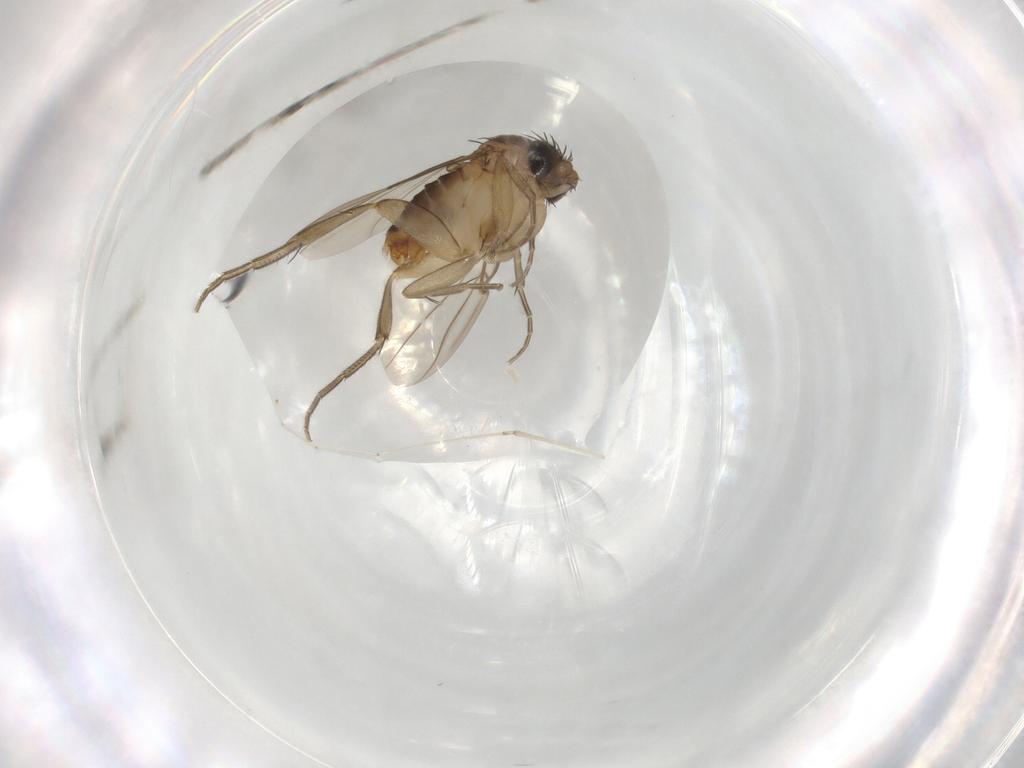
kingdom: Animalia
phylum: Arthropoda
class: Insecta
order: Diptera
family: Phoridae
